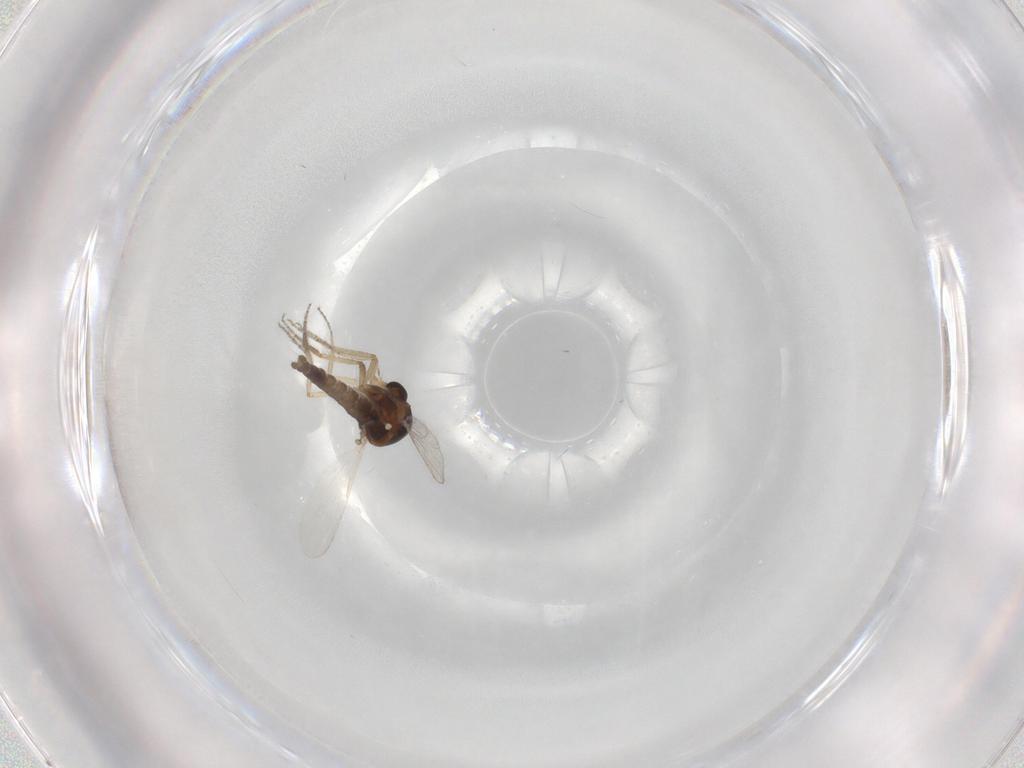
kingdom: Animalia
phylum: Arthropoda
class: Insecta
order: Diptera
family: Ceratopogonidae
